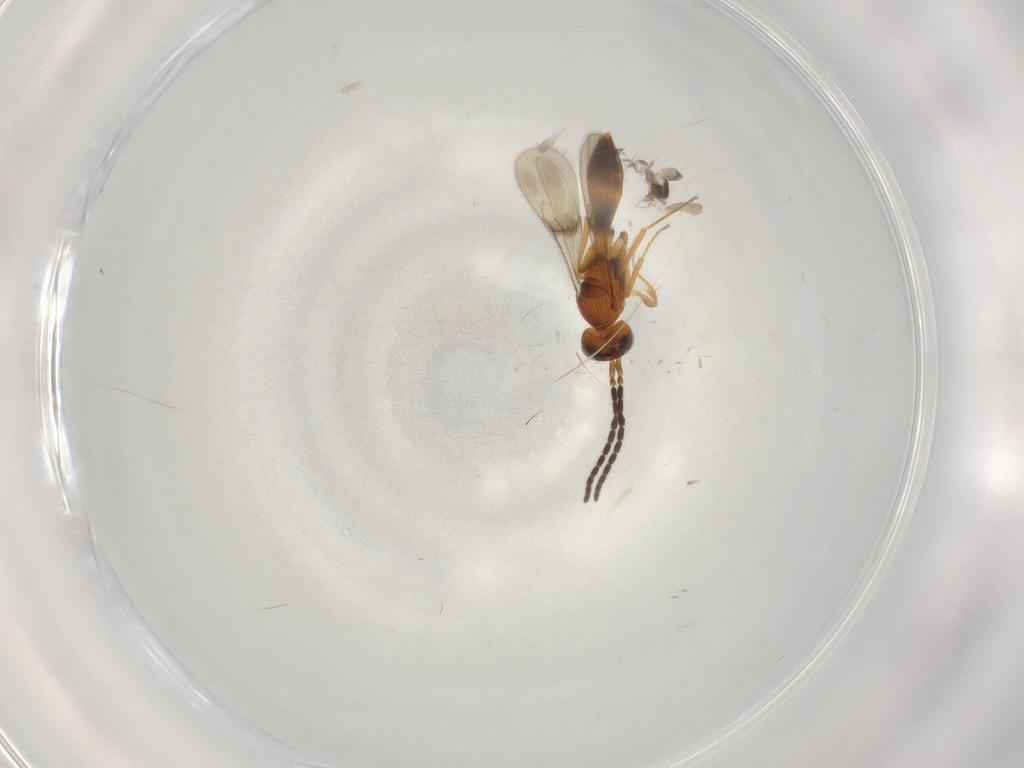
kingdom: Animalia
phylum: Arthropoda
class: Insecta
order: Hymenoptera
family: Scelionidae
